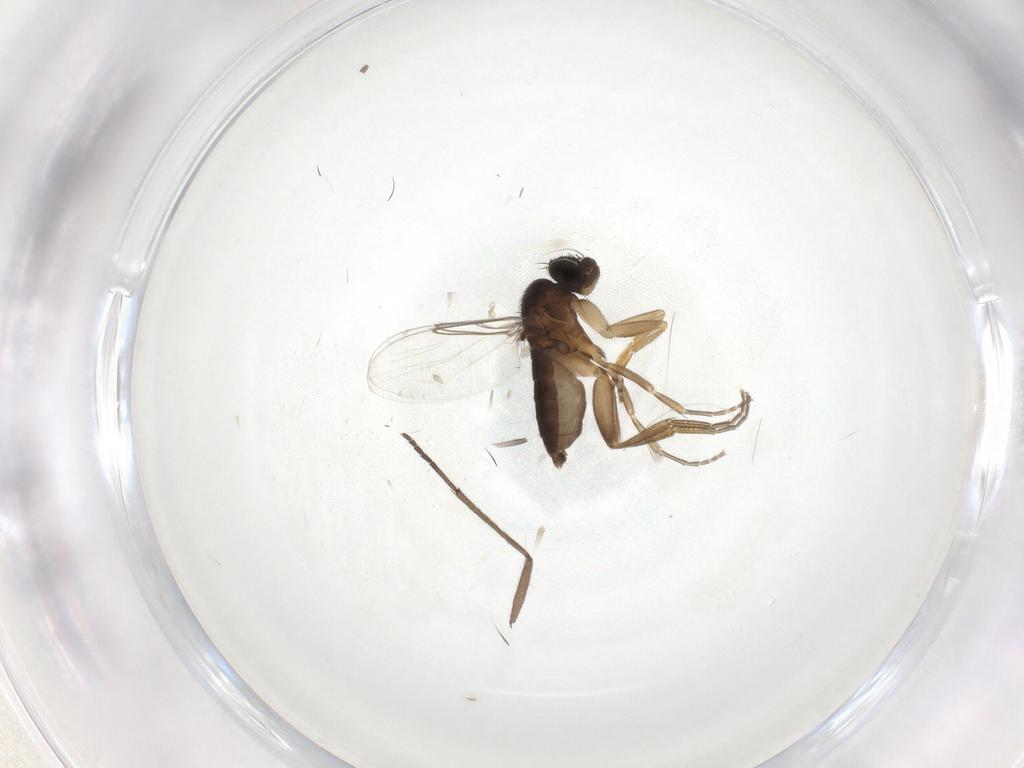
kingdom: Animalia
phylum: Arthropoda
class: Insecta
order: Diptera
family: Phoridae
